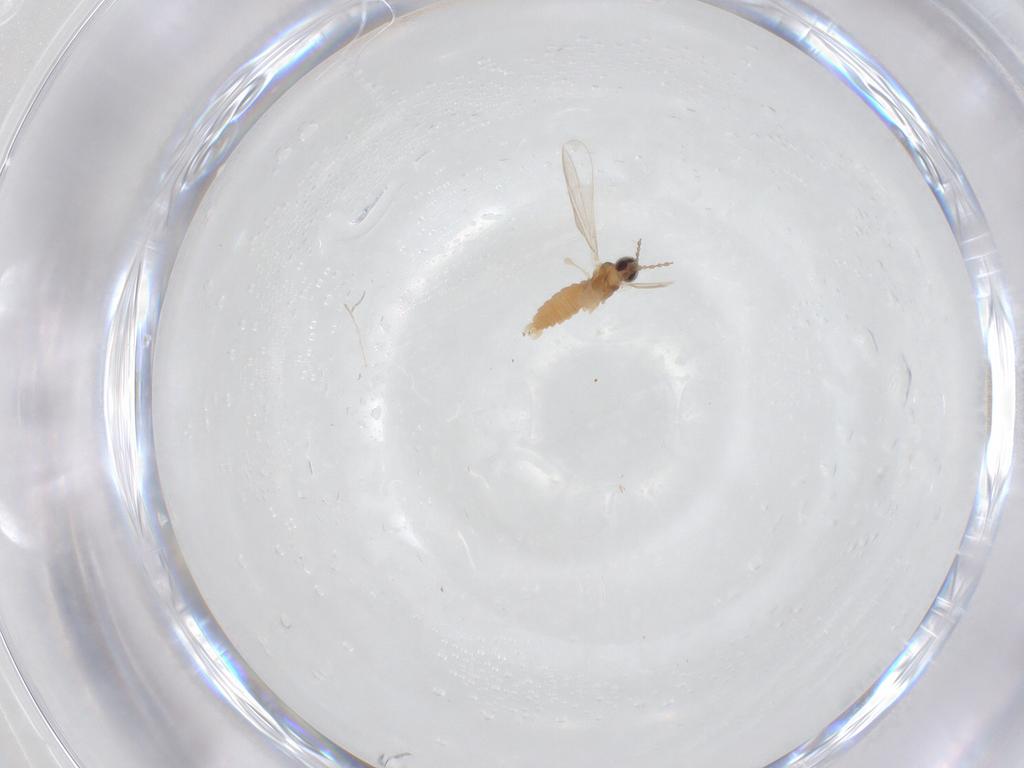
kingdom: Animalia
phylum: Arthropoda
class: Insecta
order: Diptera
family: Cecidomyiidae
